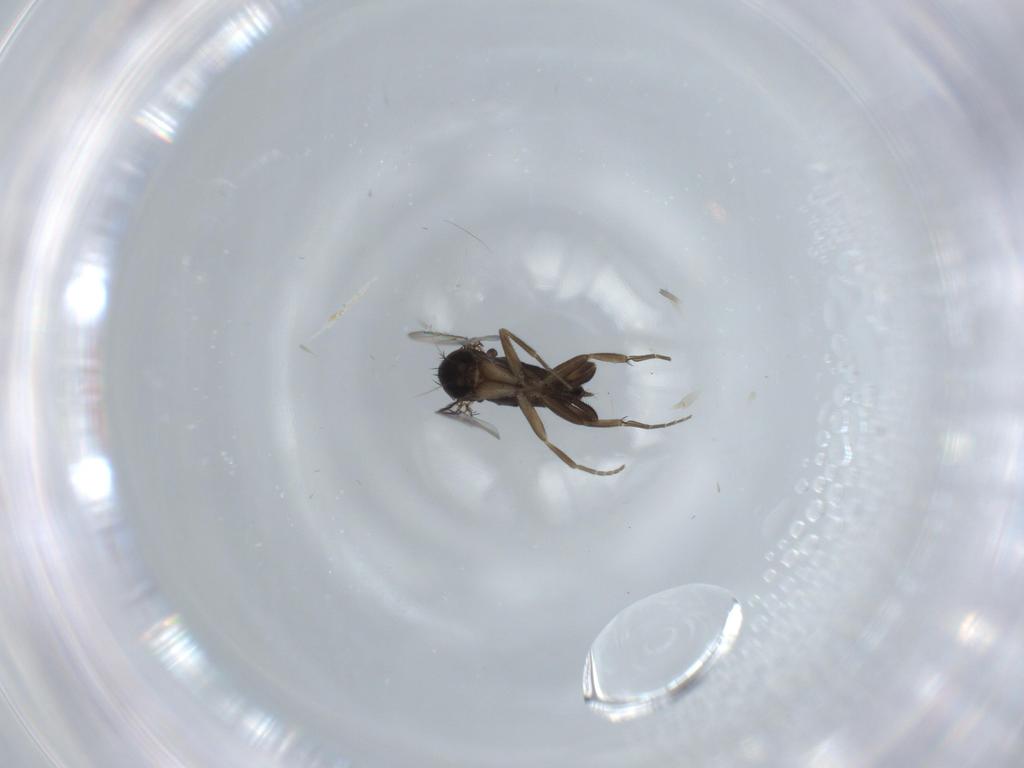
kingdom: Animalia
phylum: Arthropoda
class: Insecta
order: Diptera
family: Phoridae
